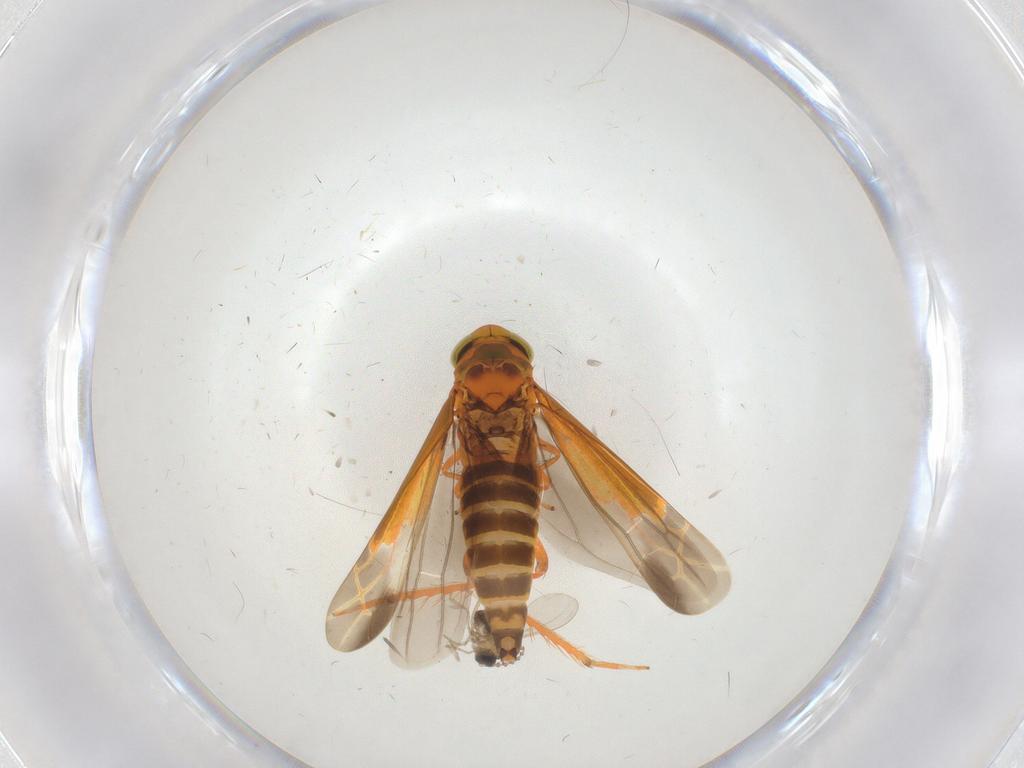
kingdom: Animalia
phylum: Arthropoda
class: Insecta
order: Hemiptera
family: Cicadellidae
